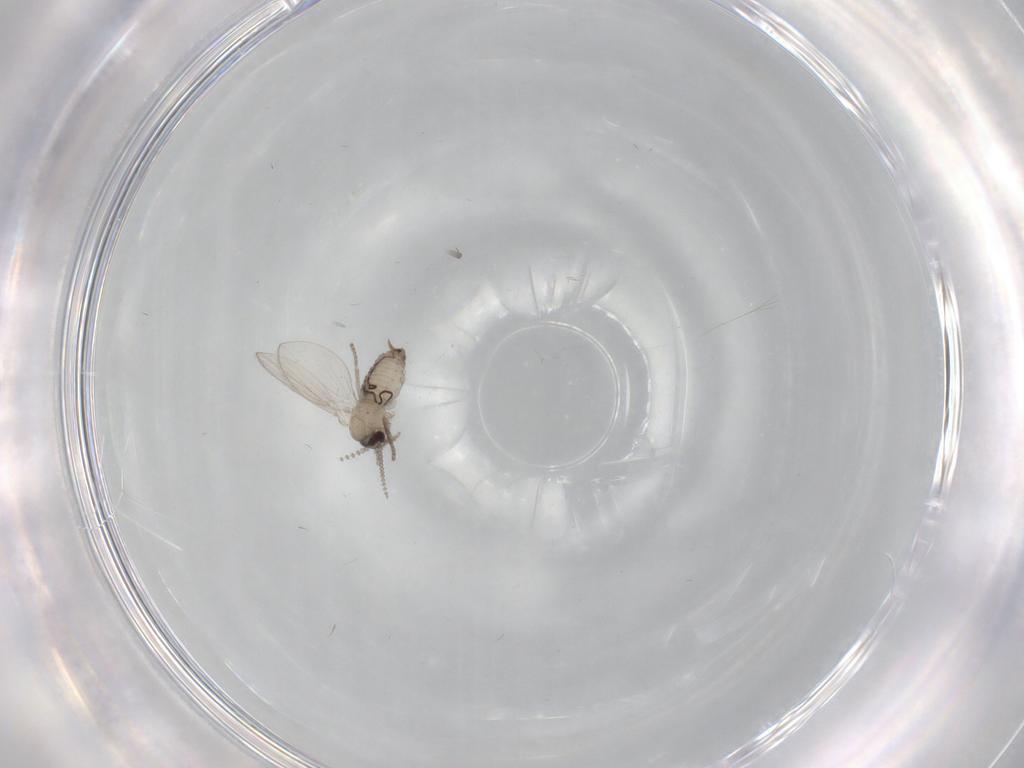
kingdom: Animalia
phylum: Arthropoda
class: Insecta
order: Diptera
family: Psychodidae
